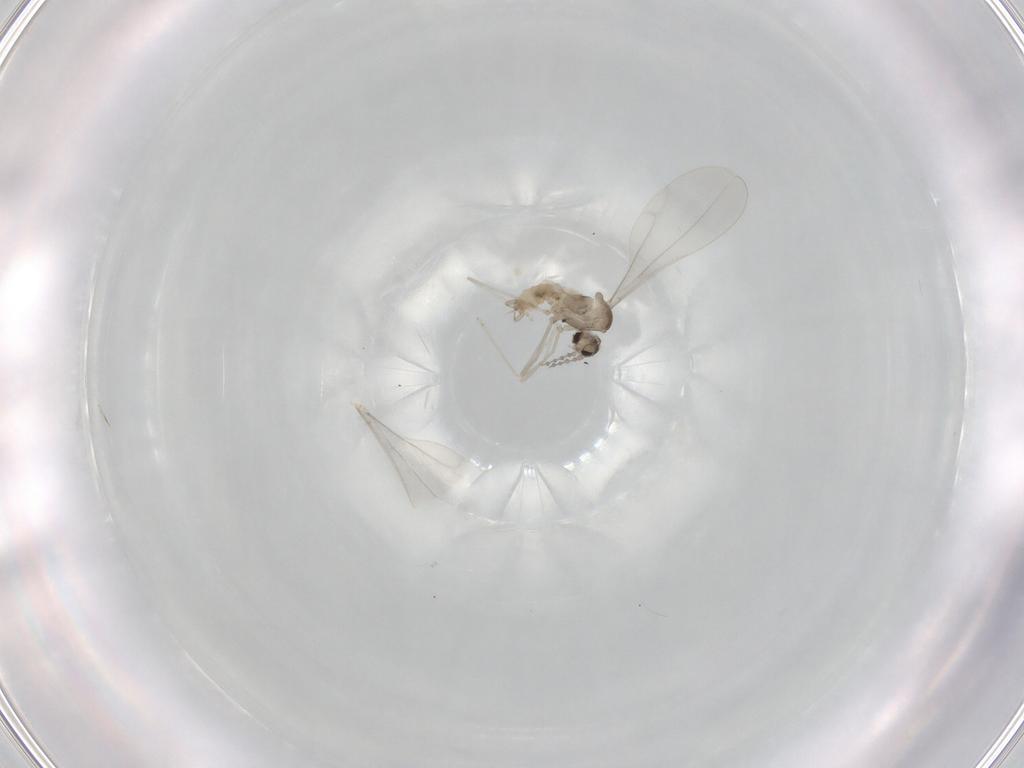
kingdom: Animalia
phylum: Arthropoda
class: Insecta
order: Diptera
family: Cecidomyiidae
